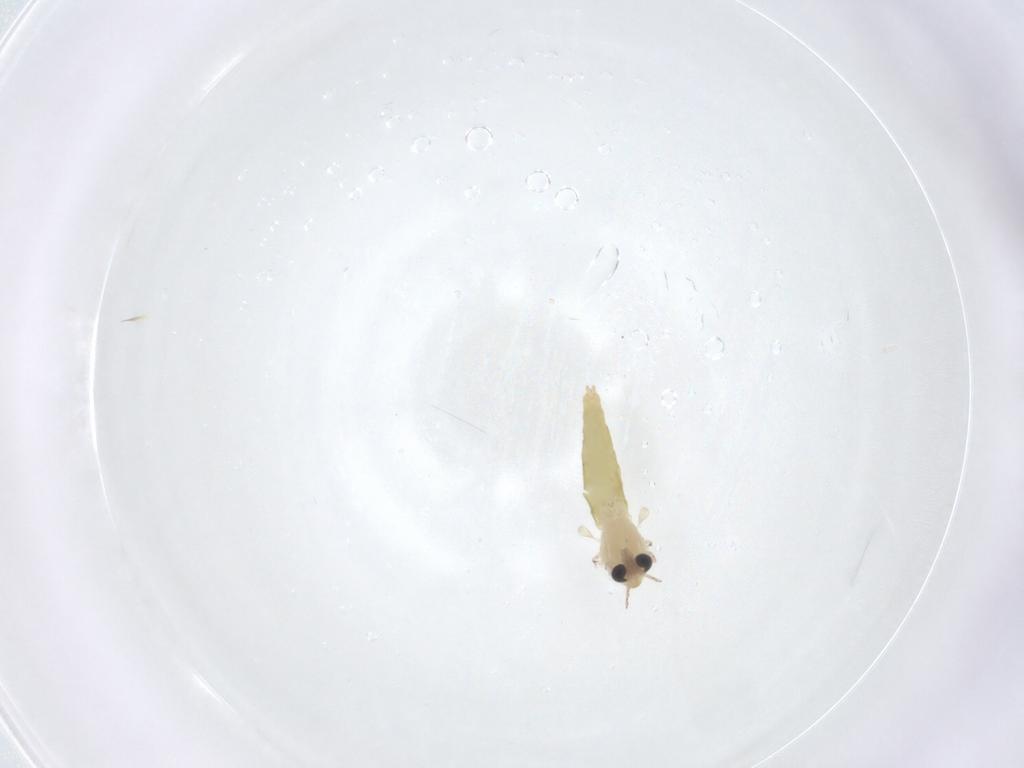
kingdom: Animalia
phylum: Arthropoda
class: Insecta
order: Diptera
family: Chironomidae
